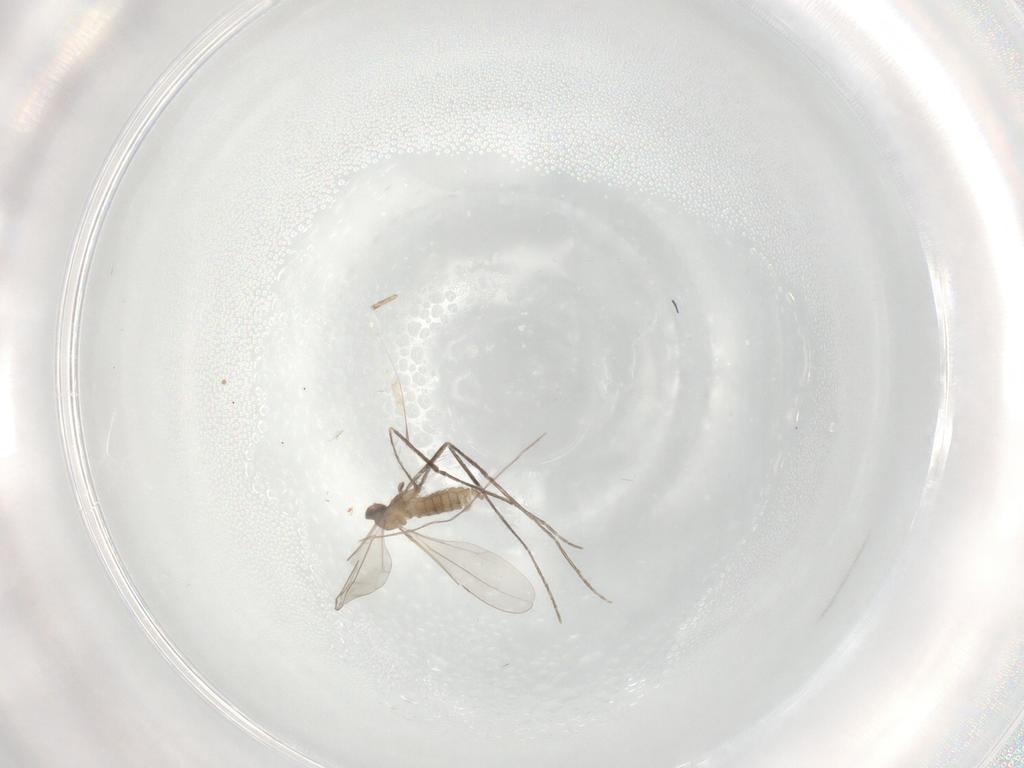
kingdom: Animalia
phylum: Arthropoda
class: Insecta
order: Diptera
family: Cecidomyiidae
